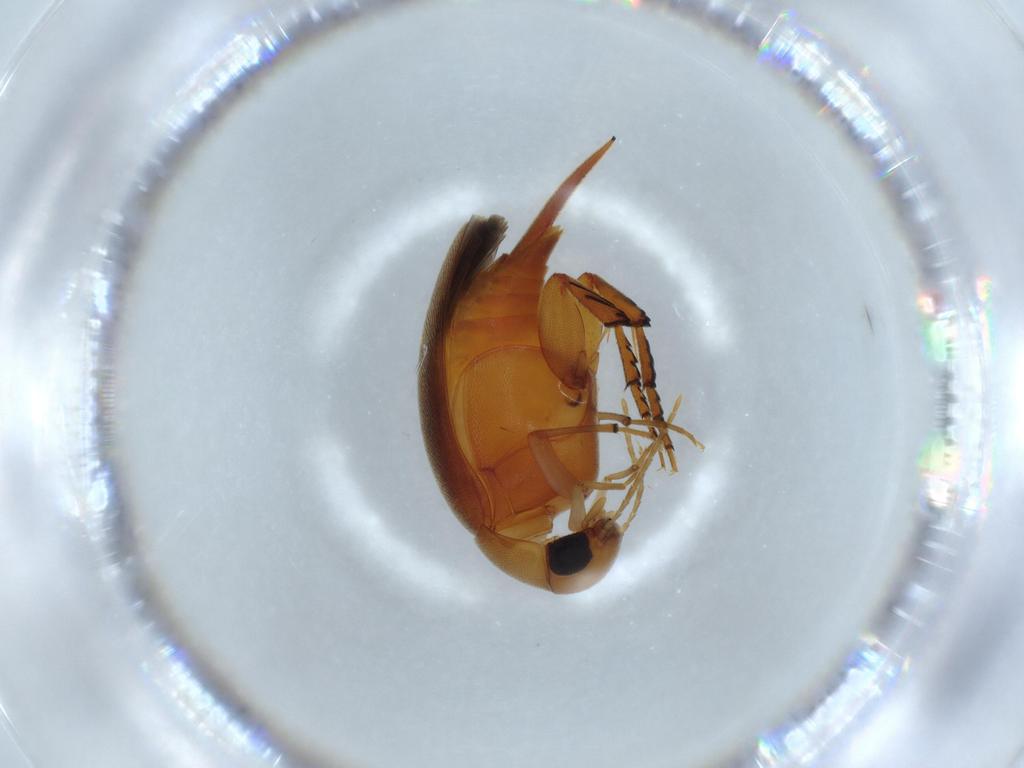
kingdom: Animalia
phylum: Arthropoda
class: Insecta
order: Coleoptera
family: Mordellidae
